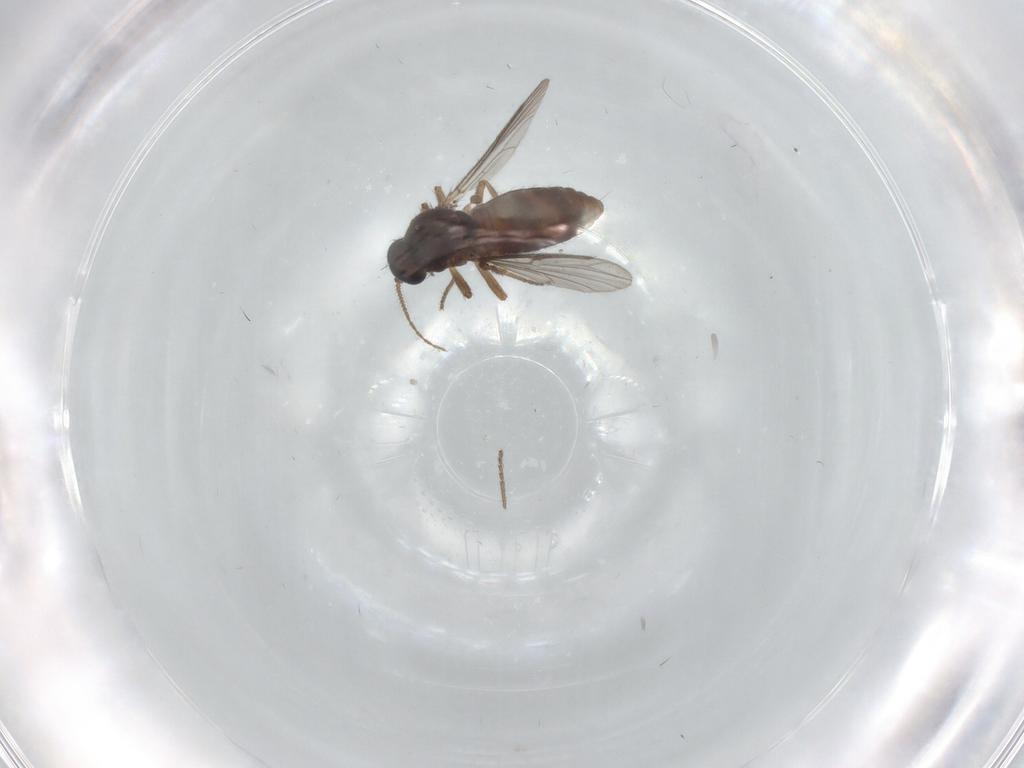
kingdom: Animalia
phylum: Arthropoda
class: Insecta
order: Diptera
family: Ceratopogonidae
